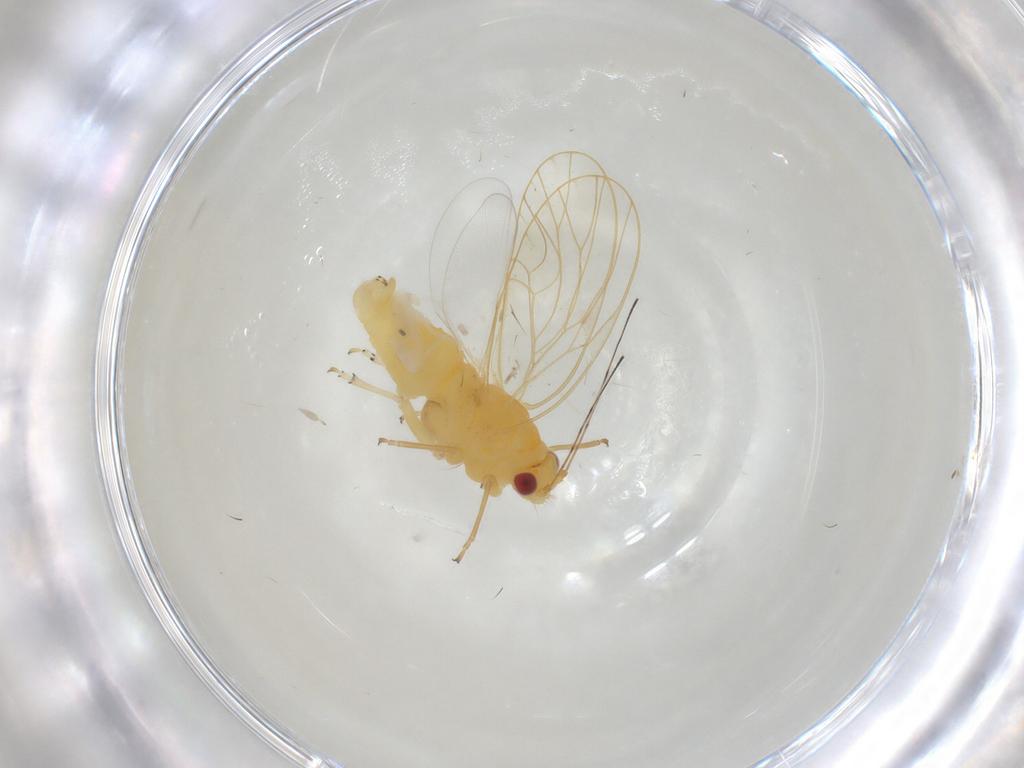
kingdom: Animalia
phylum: Arthropoda
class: Insecta
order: Hemiptera
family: Psyllidae
